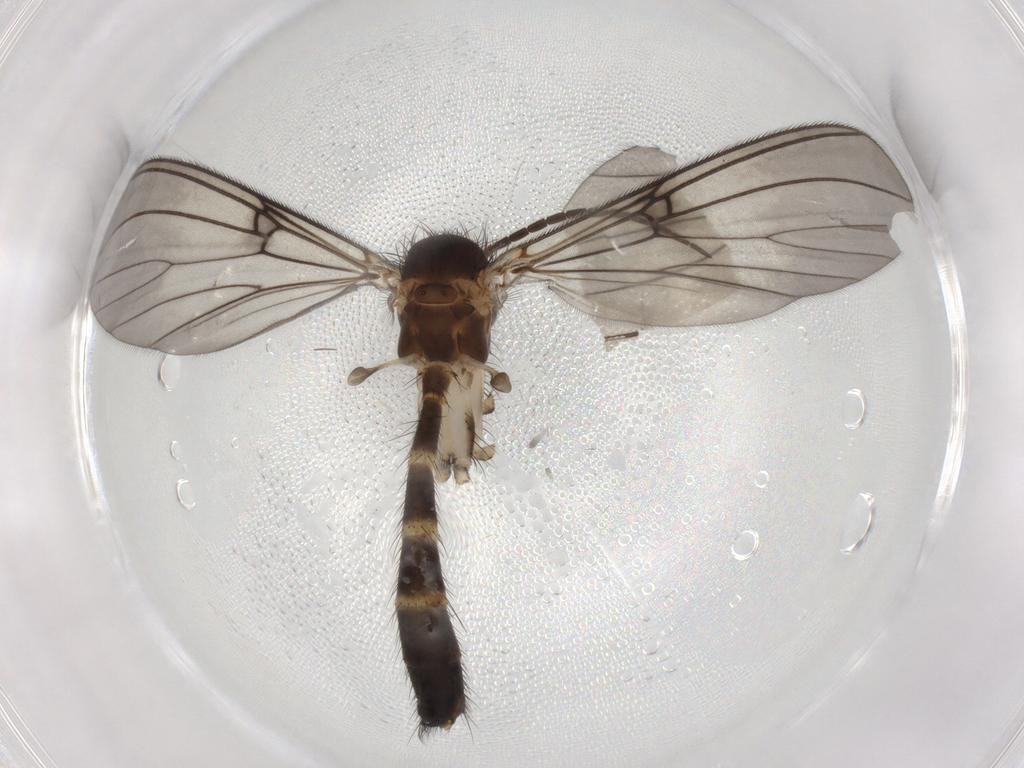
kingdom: Animalia
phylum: Arthropoda
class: Insecta
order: Diptera
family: Chironomidae
